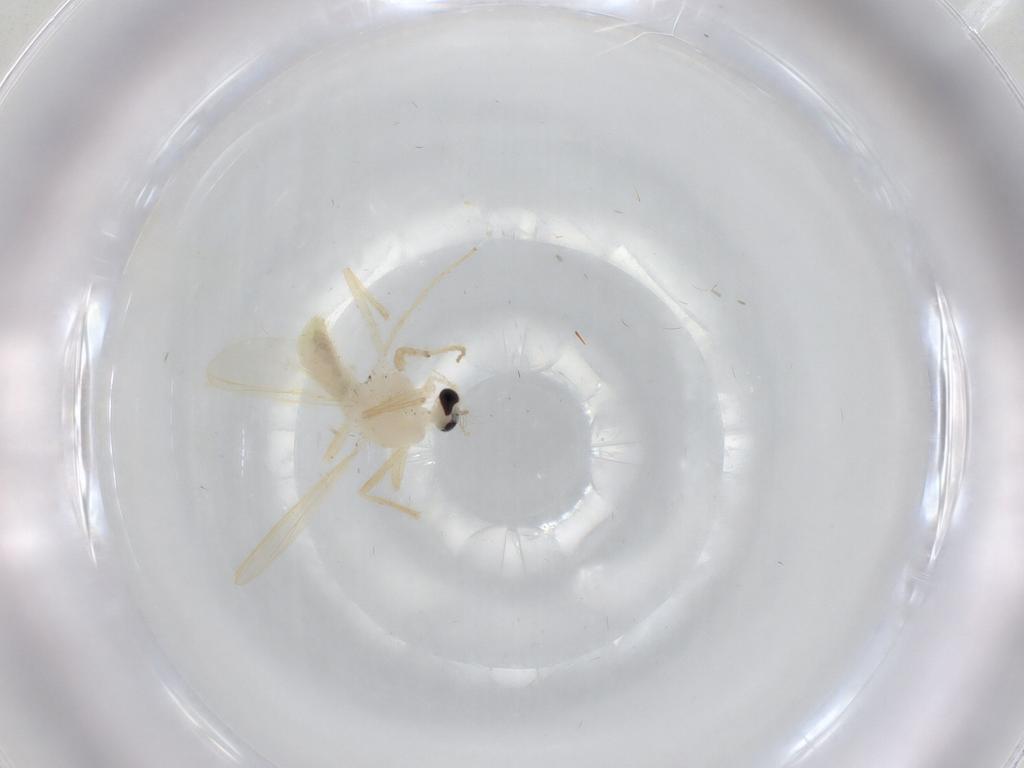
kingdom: Animalia
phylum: Arthropoda
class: Insecta
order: Diptera
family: Chironomidae
